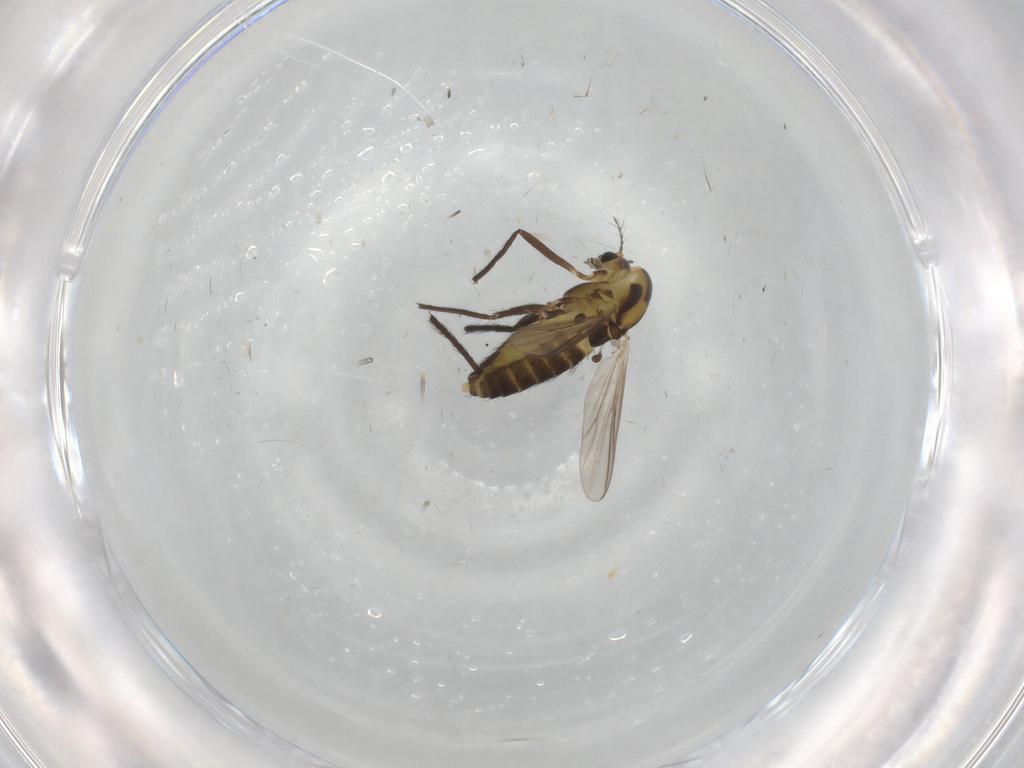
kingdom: Animalia
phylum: Arthropoda
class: Insecta
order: Diptera
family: Chironomidae
